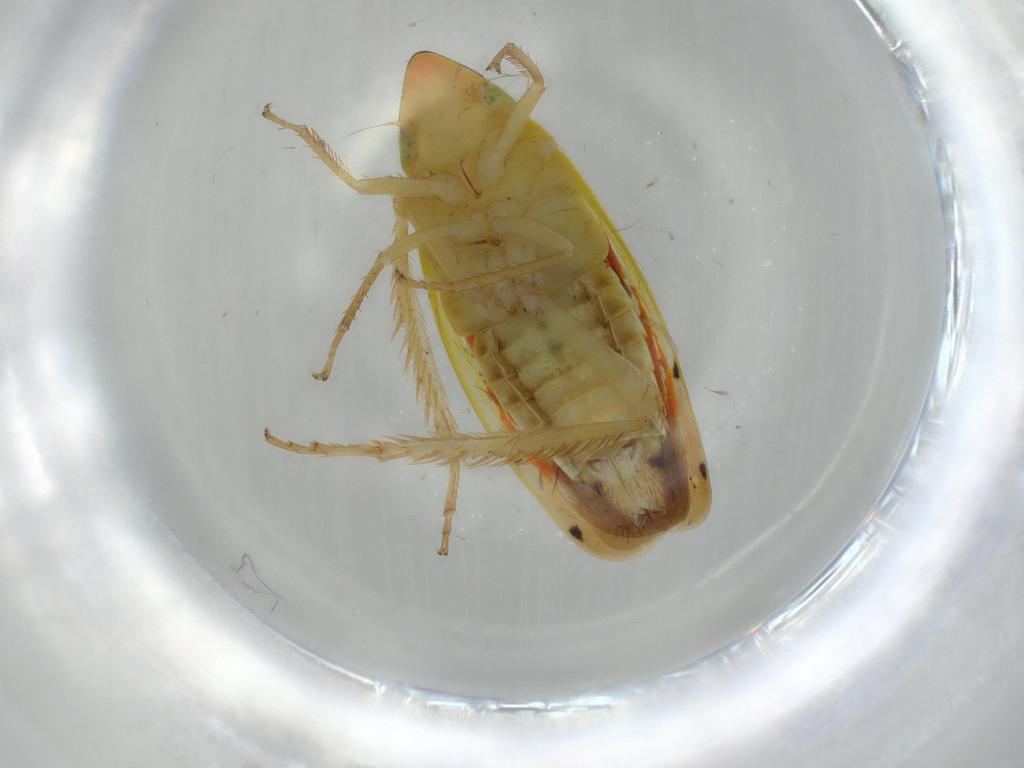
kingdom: Animalia
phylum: Arthropoda
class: Insecta
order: Hemiptera
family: Cicadellidae
